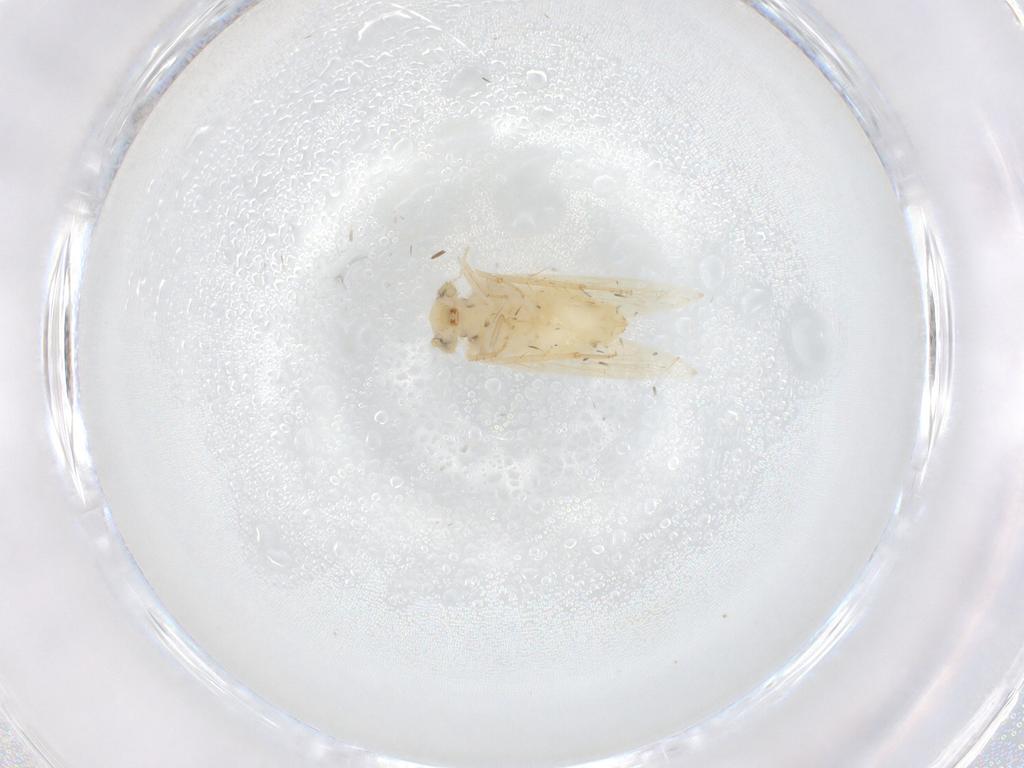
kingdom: Animalia
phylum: Arthropoda
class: Insecta
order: Psocodea
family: Lepidopsocidae
